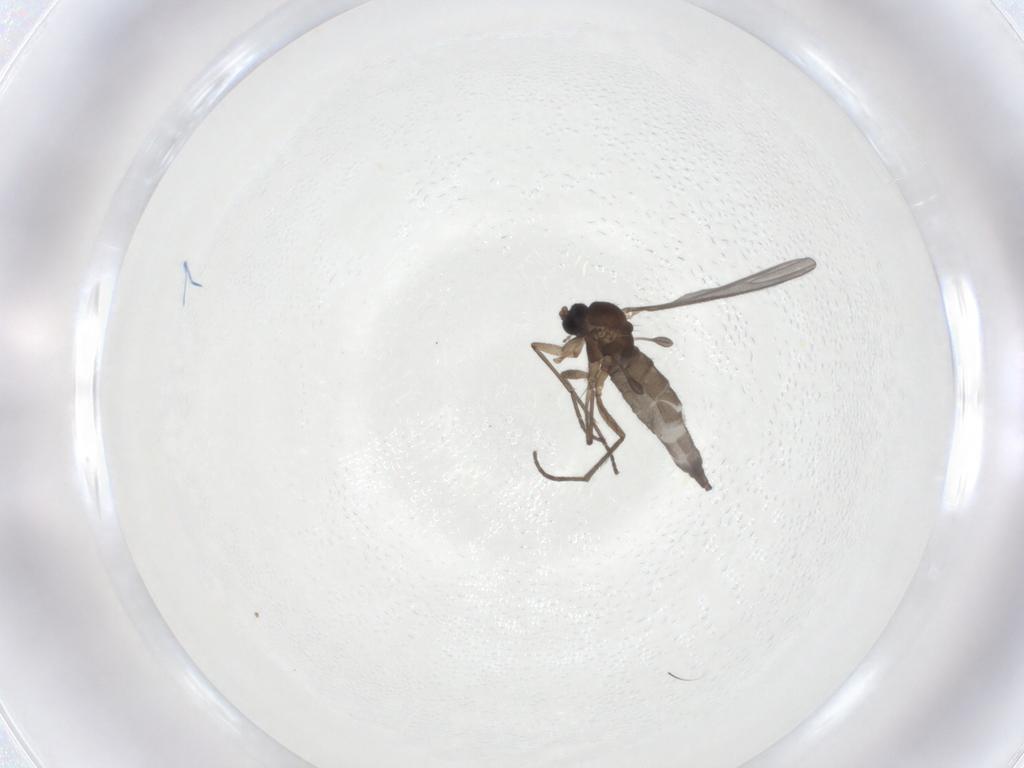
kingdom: Animalia
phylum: Arthropoda
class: Insecta
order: Diptera
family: Sciaridae
